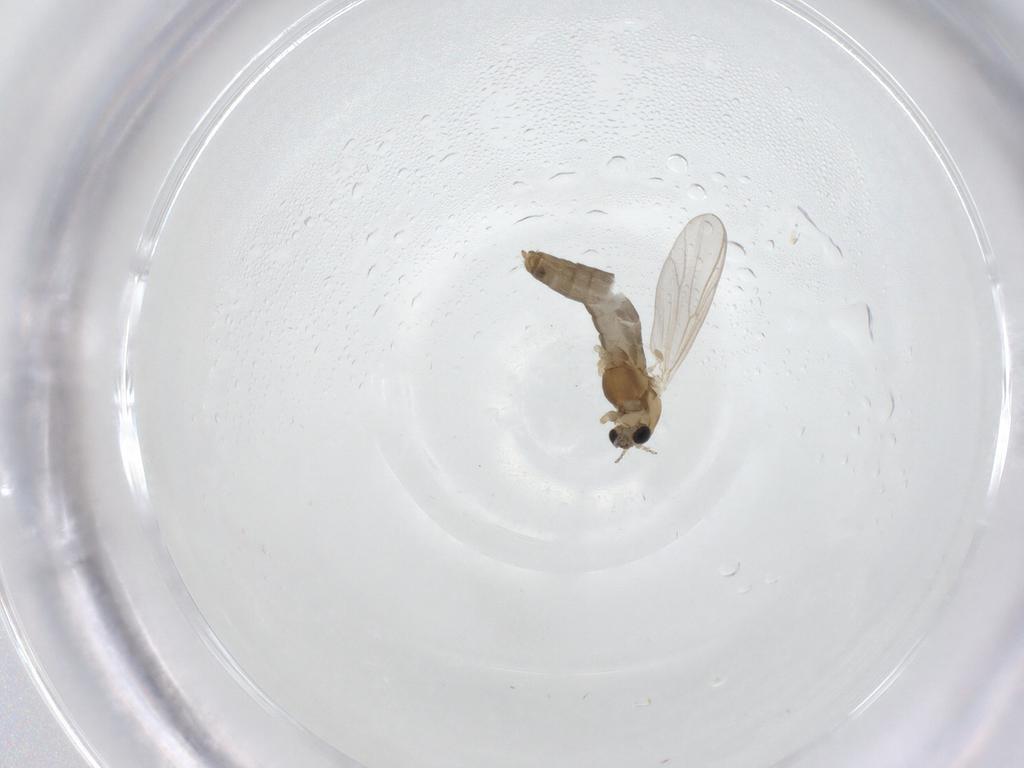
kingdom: Animalia
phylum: Arthropoda
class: Insecta
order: Diptera
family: Chironomidae
